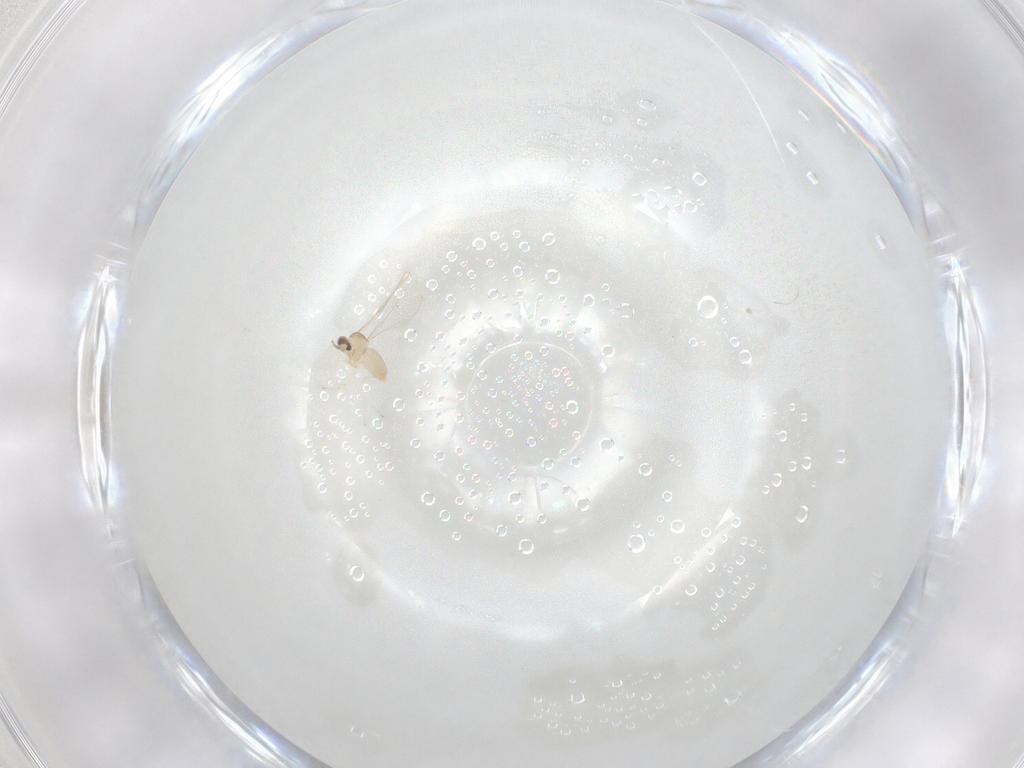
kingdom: Animalia
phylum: Arthropoda
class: Insecta
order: Diptera
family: Cecidomyiidae
